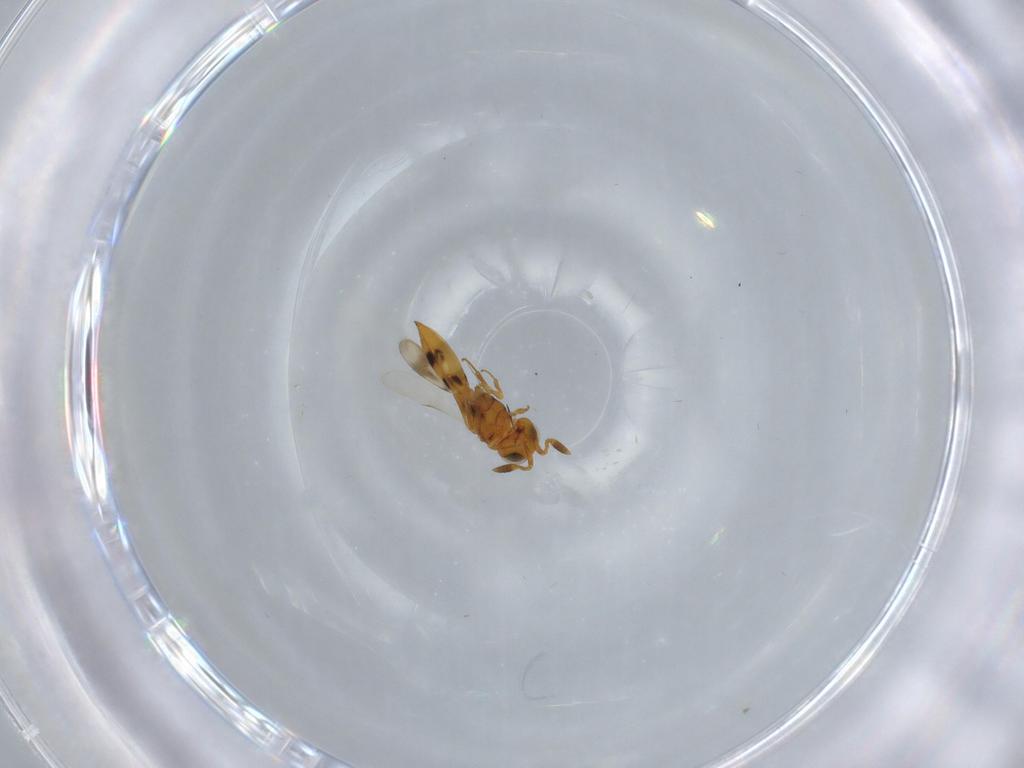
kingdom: Animalia
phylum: Arthropoda
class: Insecta
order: Hymenoptera
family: Scelionidae
